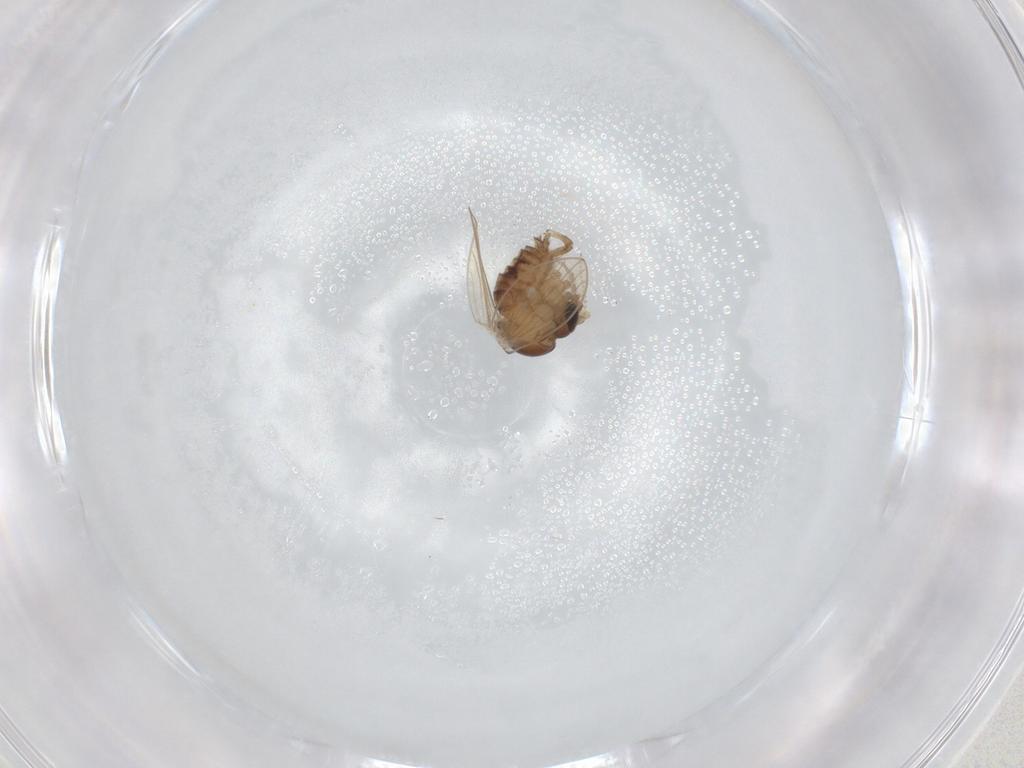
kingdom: Animalia
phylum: Arthropoda
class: Insecta
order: Diptera
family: Psychodidae
